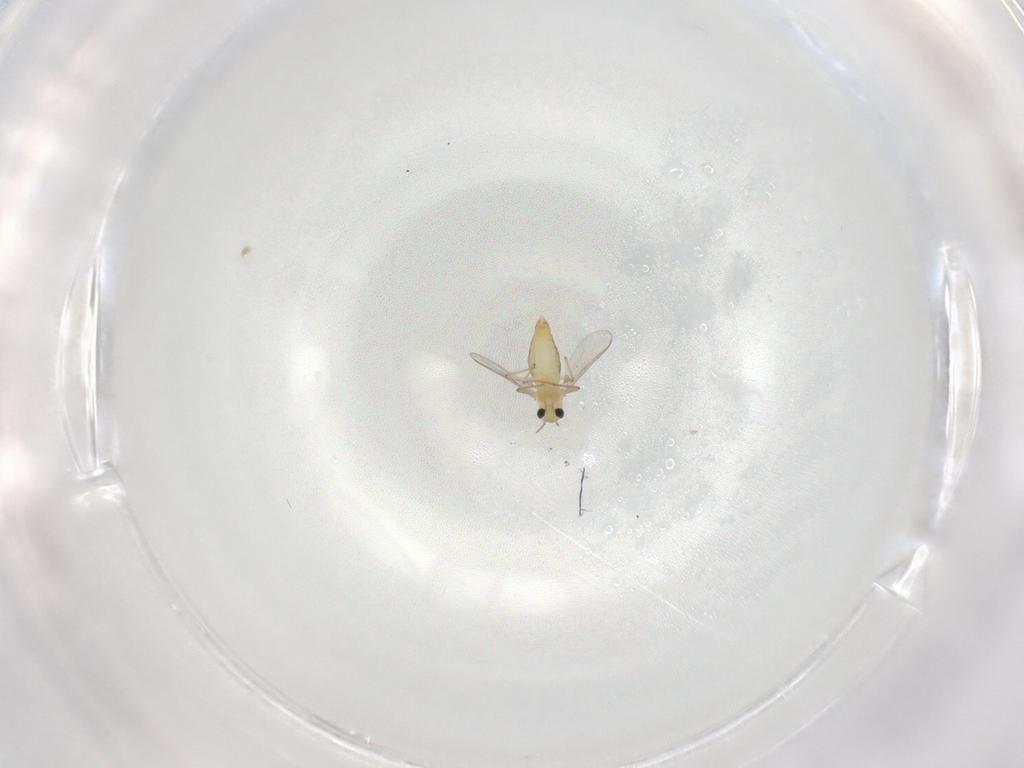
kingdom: Animalia
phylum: Arthropoda
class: Insecta
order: Diptera
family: Chironomidae
